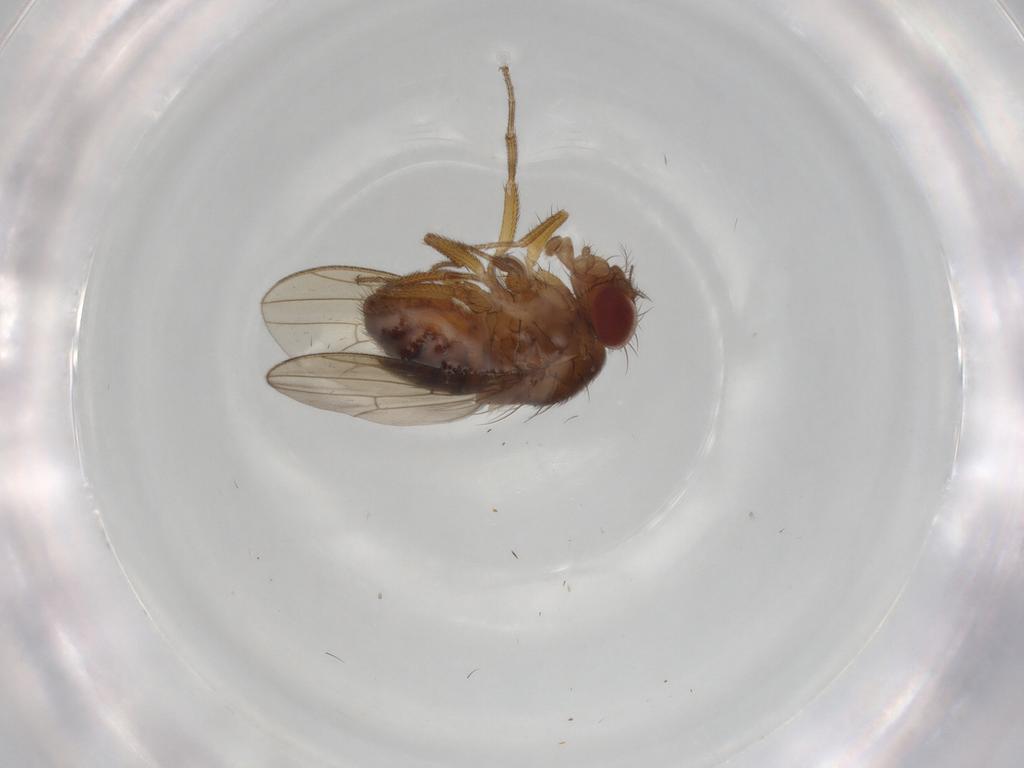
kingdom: Animalia
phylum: Arthropoda
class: Insecta
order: Diptera
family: Drosophilidae
